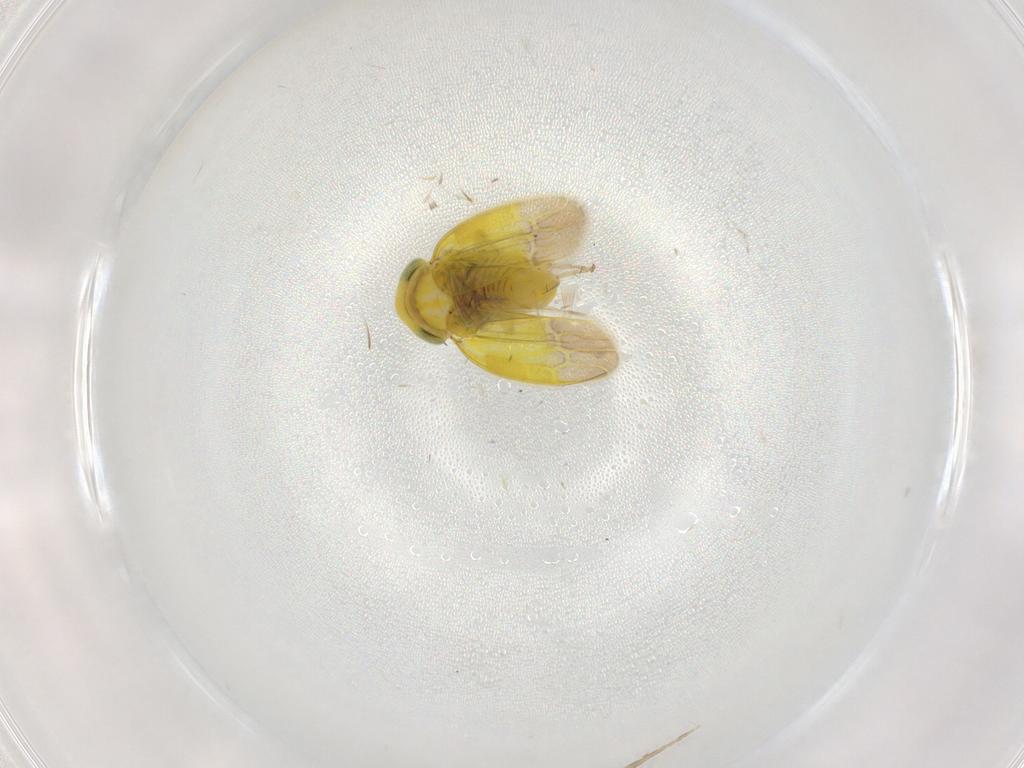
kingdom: Animalia
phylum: Arthropoda
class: Insecta
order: Hemiptera
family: Cicadellidae
